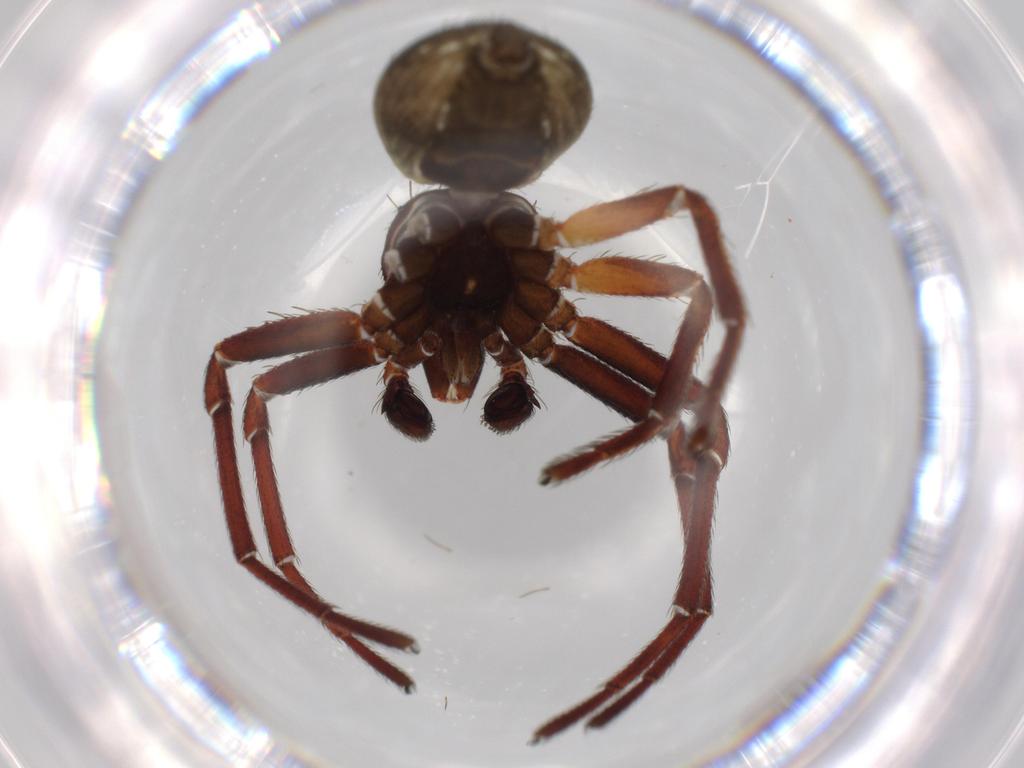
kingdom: Animalia
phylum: Arthropoda
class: Arachnida
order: Araneae
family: Thomisidae
